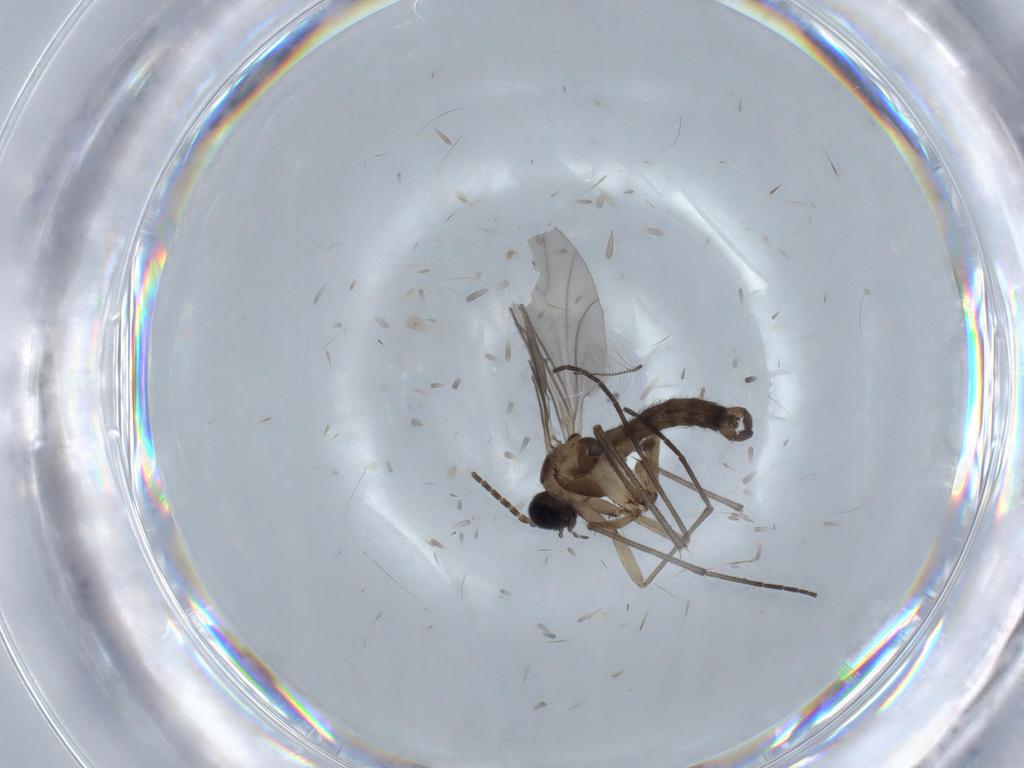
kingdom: Animalia
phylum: Arthropoda
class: Insecta
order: Diptera
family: Sciaridae
